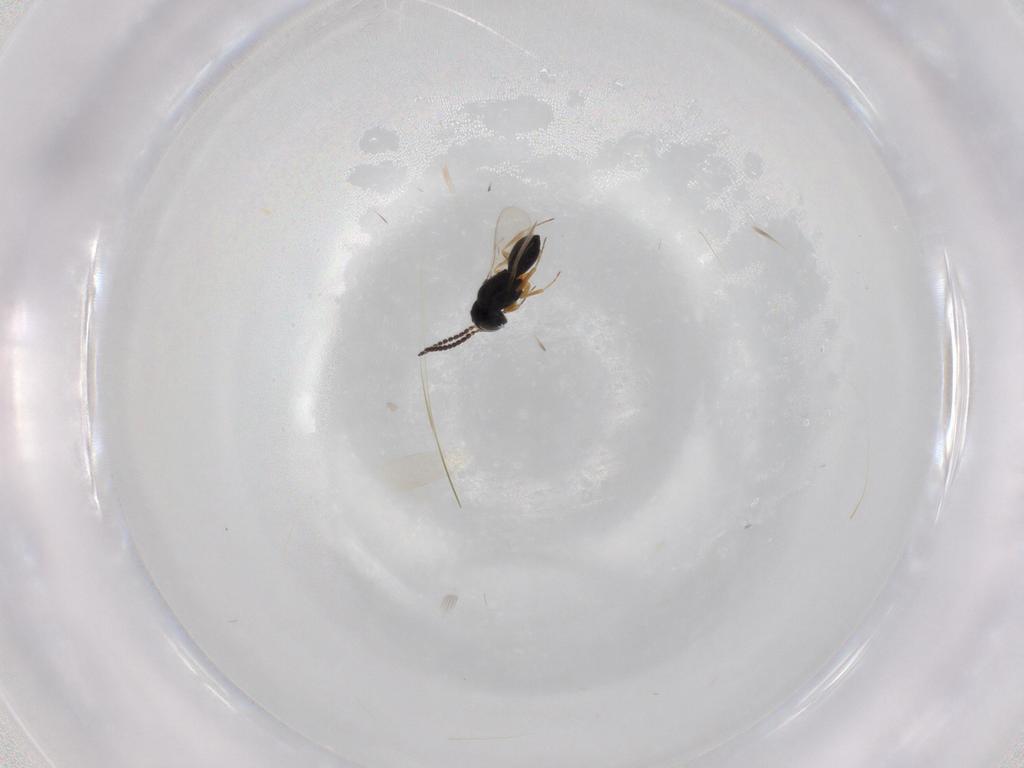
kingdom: Animalia
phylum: Arthropoda
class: Insecta
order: Hymenoptera
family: Scelionidae
